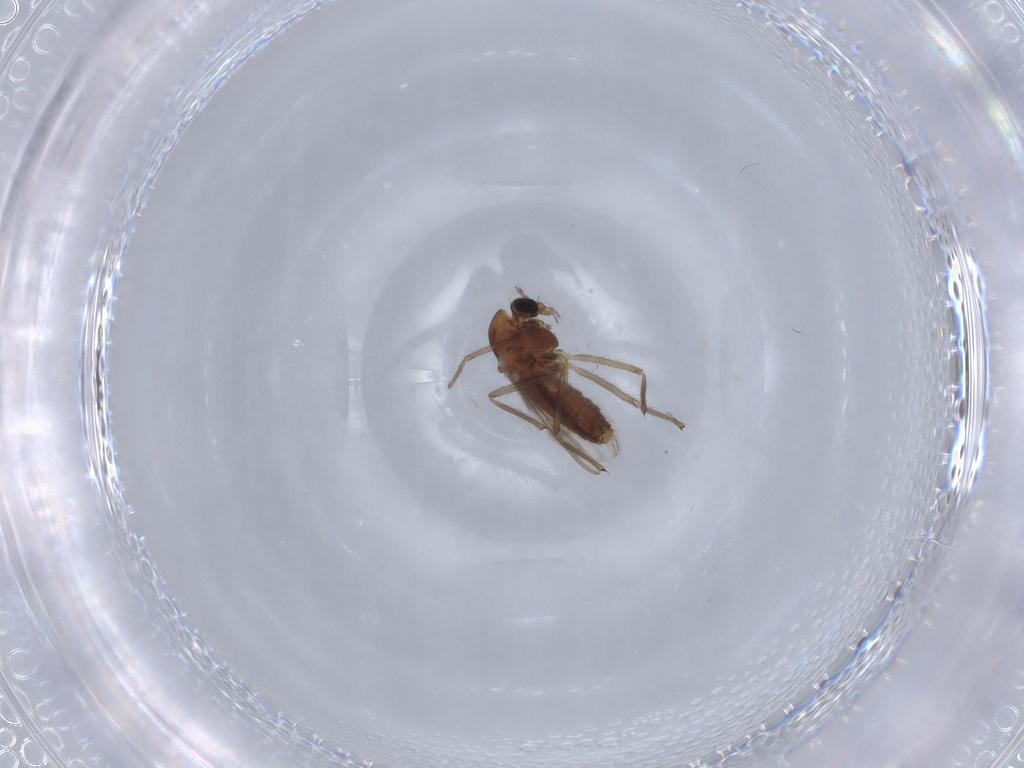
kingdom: Animalia
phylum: Arthropoda
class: Insecta
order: Diptera
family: Chironomidae
